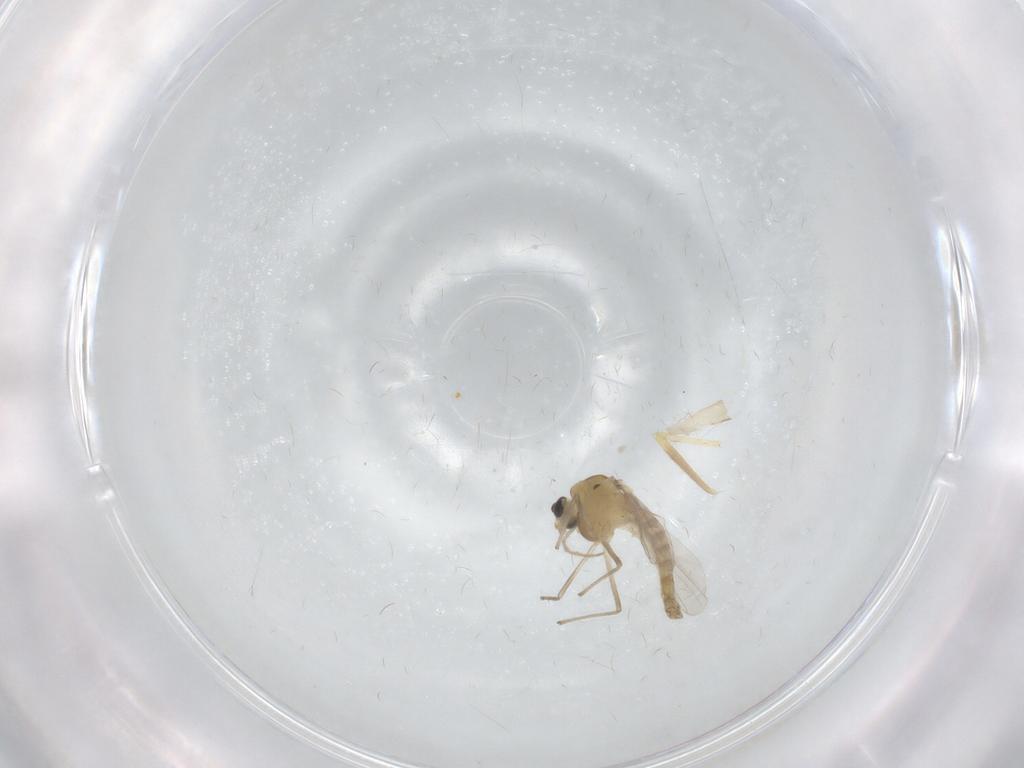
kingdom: Animalia
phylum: Arthropoda
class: Insecta
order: Diptera
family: Chironomidae
